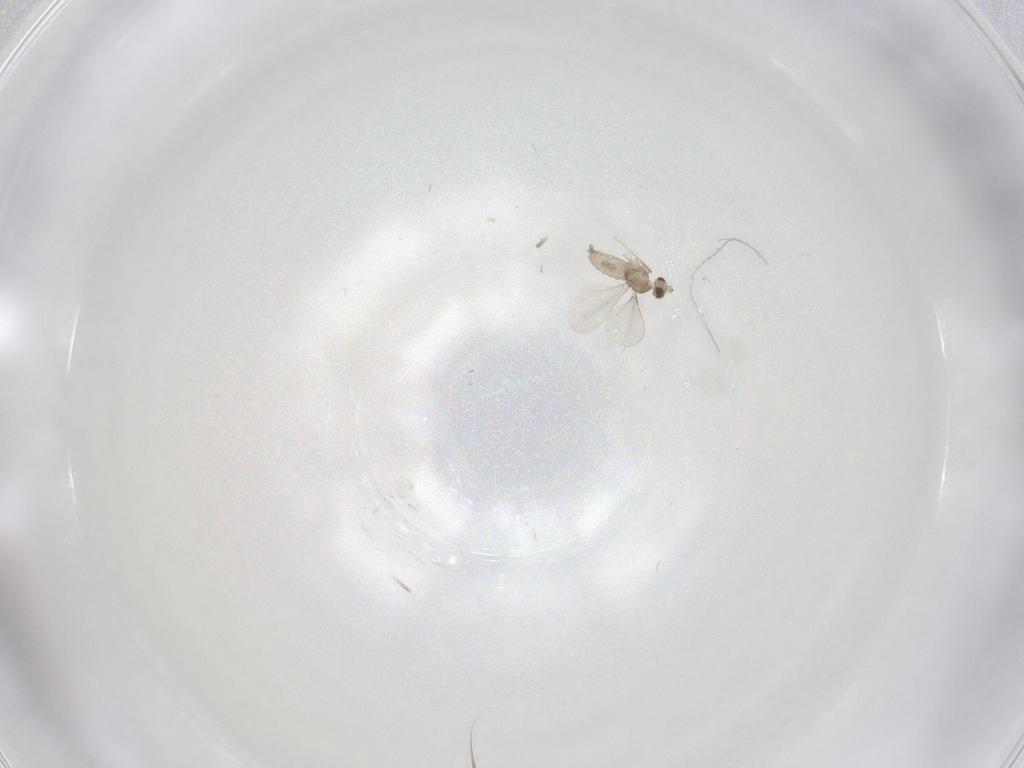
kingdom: Animalia
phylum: Arthropoda
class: Insecta
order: Diptera
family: Cecidomyiidae
